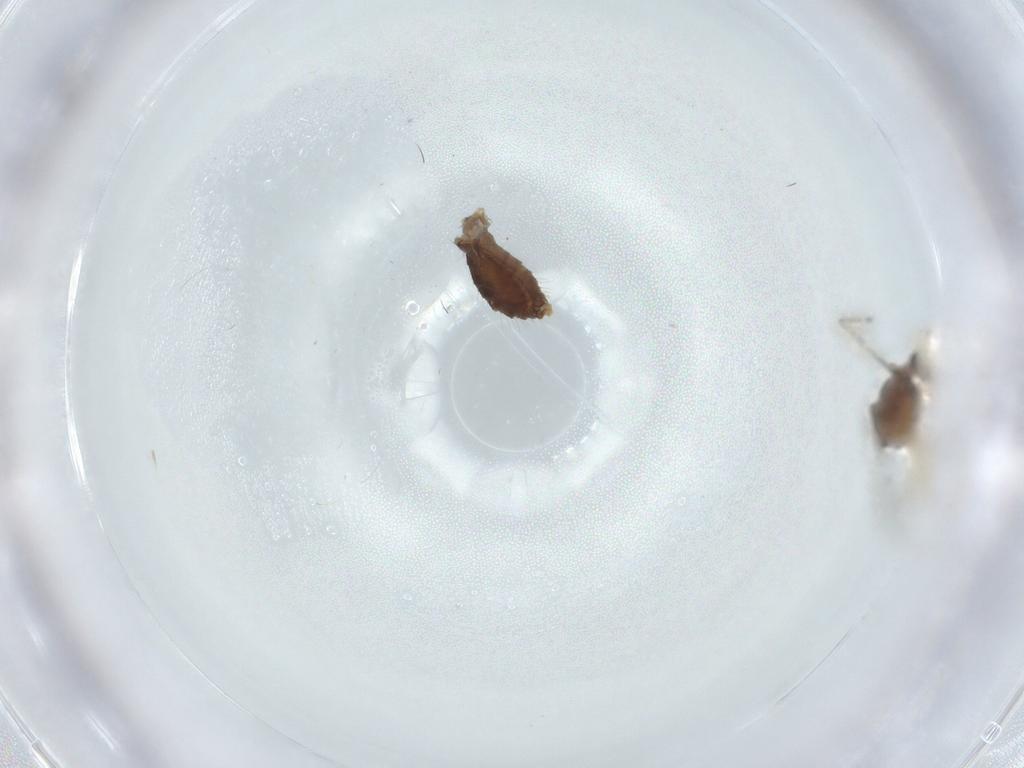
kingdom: Animalia
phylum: Arthropoda
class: Insecta
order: Diptera
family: Chironomidae
